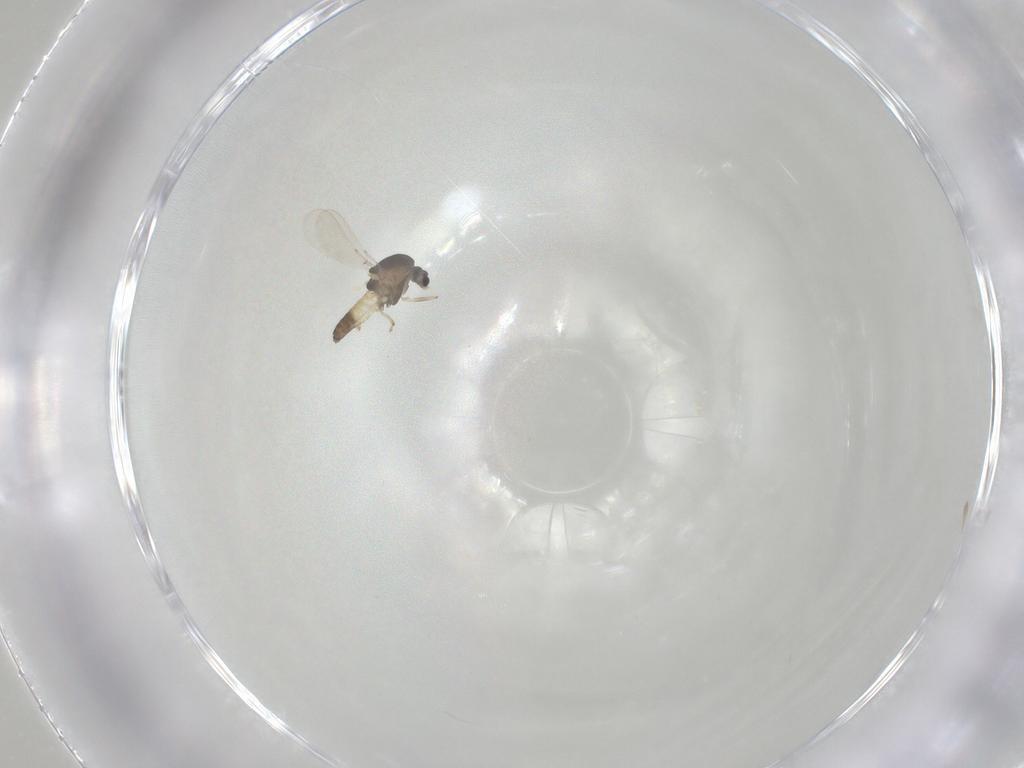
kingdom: Animalia
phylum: Arthropoda
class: Insecta
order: Diptera
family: Chironomidae
